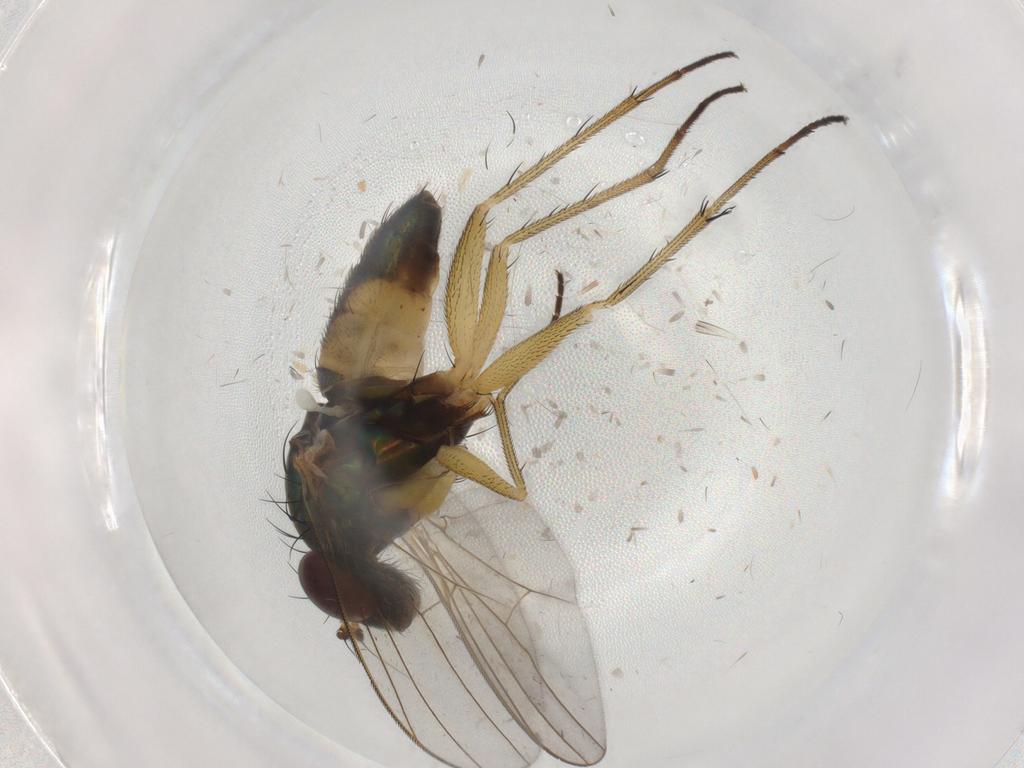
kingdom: Animalia
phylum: Arthropoda
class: Insecta
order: Diptera
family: Dolichopodidae
